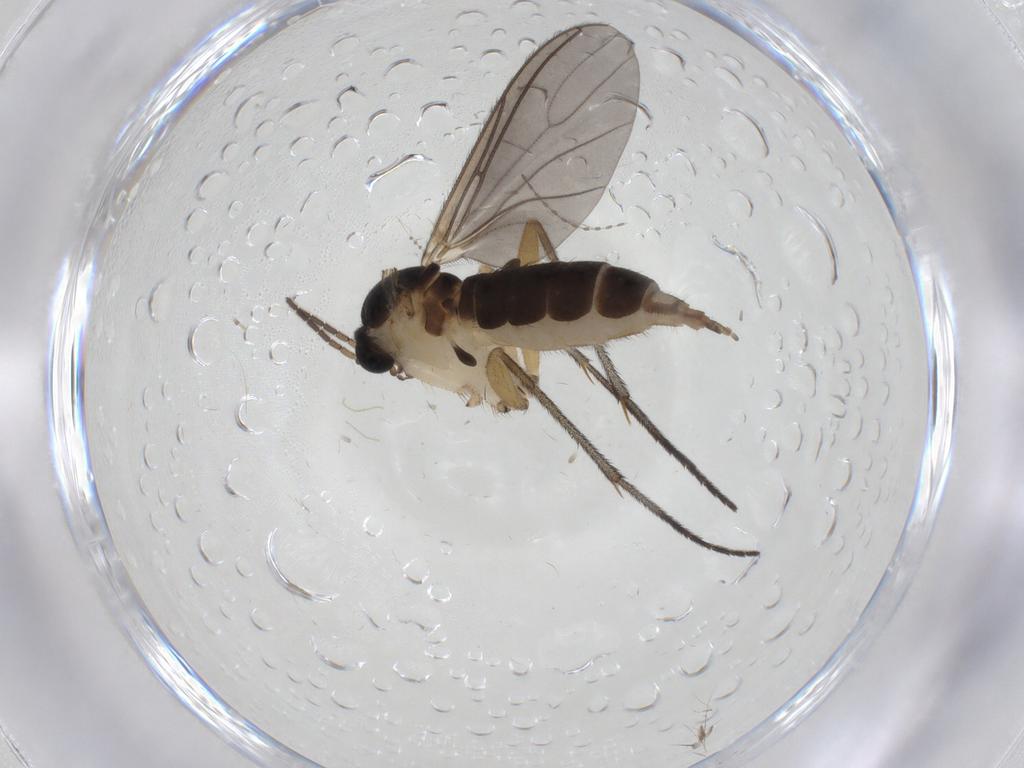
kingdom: Animalia
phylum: Arthropoda
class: Insecta
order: Diptera
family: Sciaridae
